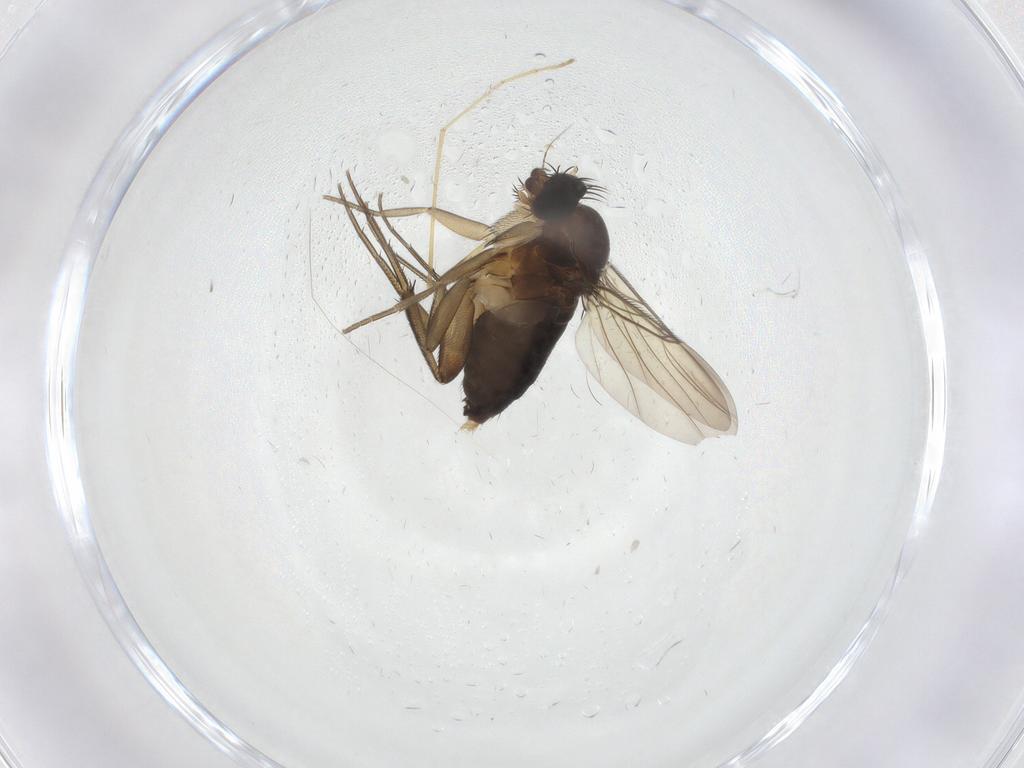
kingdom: Animalia
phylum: Arthropoda
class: Insecta
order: Diptera
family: Phoridae
